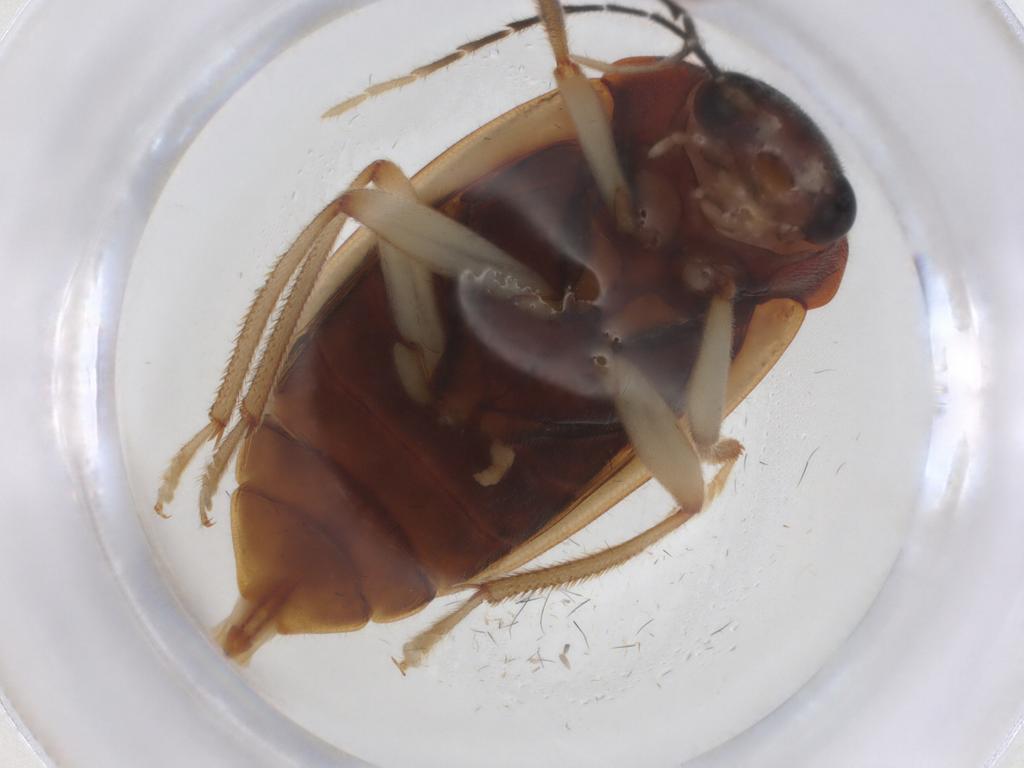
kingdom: Animalia
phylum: Arthropoda
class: Insecta
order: Coleoptera
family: Ptilodactylidae
